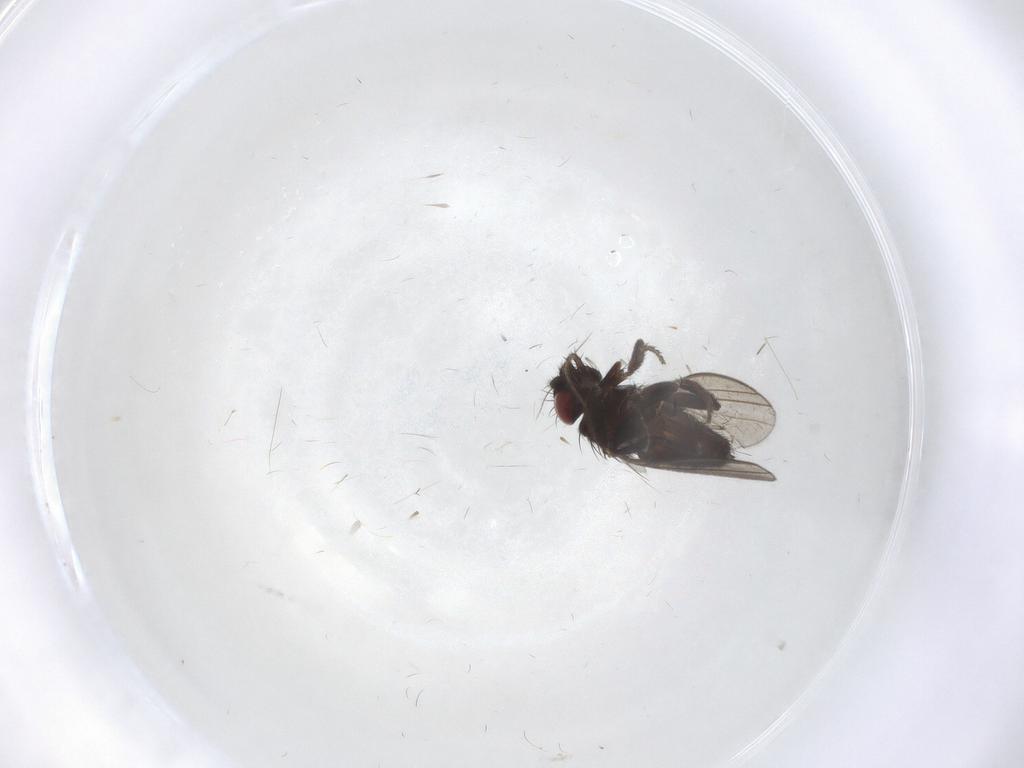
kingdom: Animalia
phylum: Arthropoda
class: Insecta
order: Diptera
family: Milichiidae
